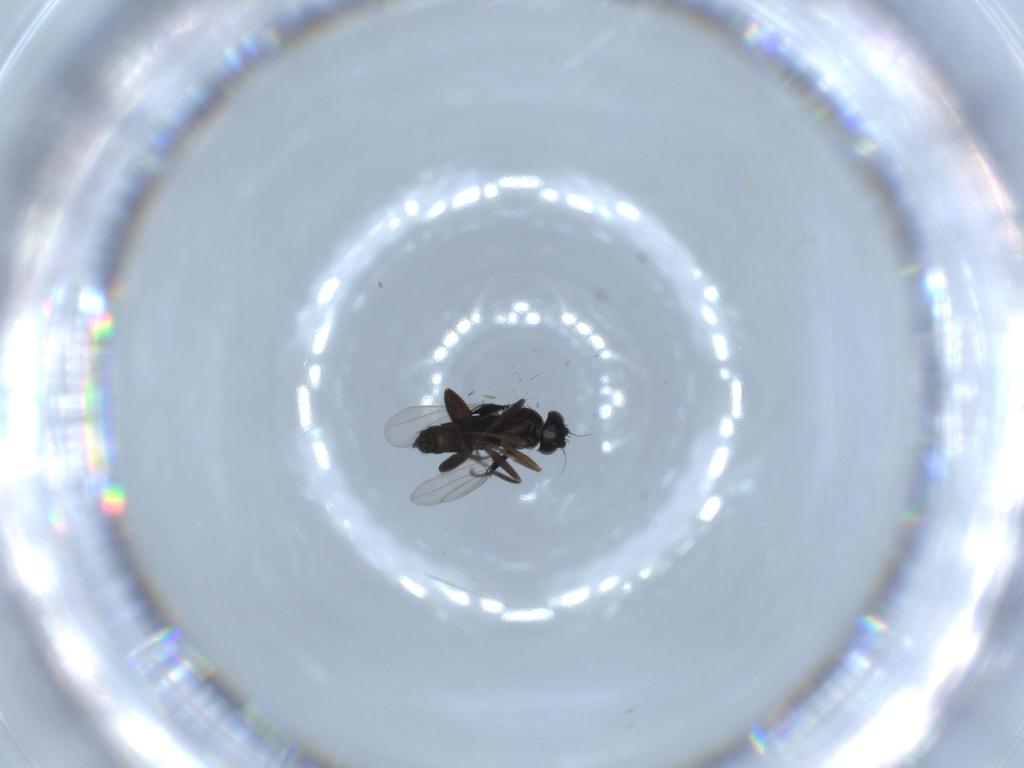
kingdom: Animalia
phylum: Arthropoda
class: Insecta
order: Diptera
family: Phoridae
